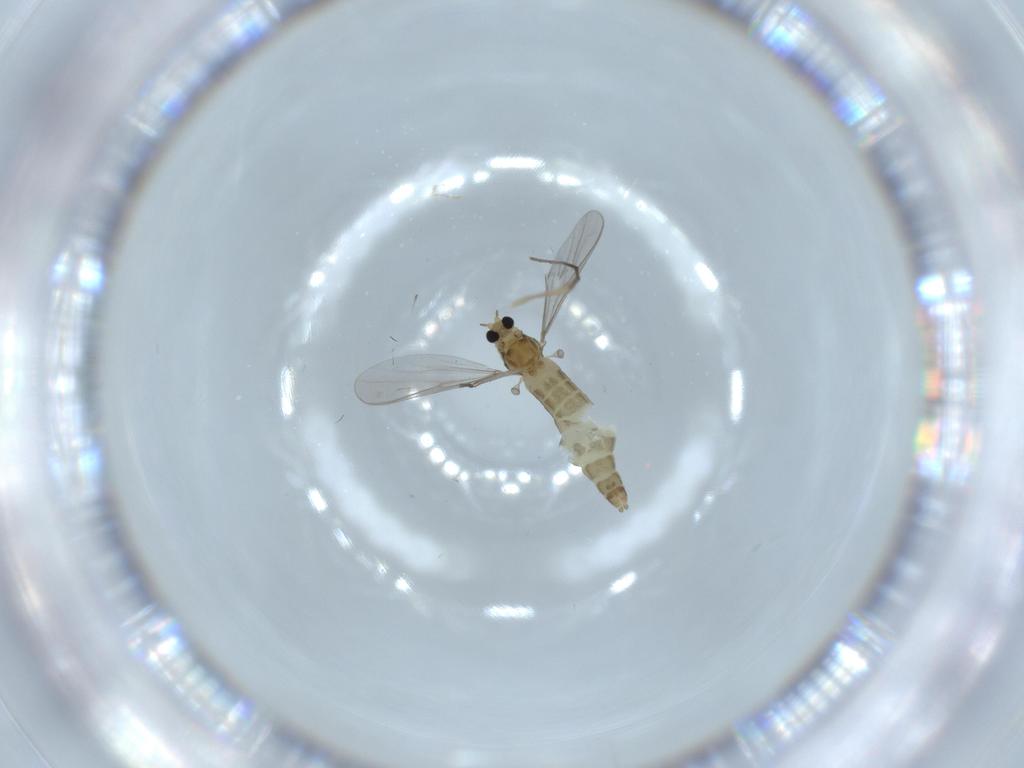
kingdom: Animalia
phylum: Arthropoda
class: Insecta
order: Diptera
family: Chironomidae
